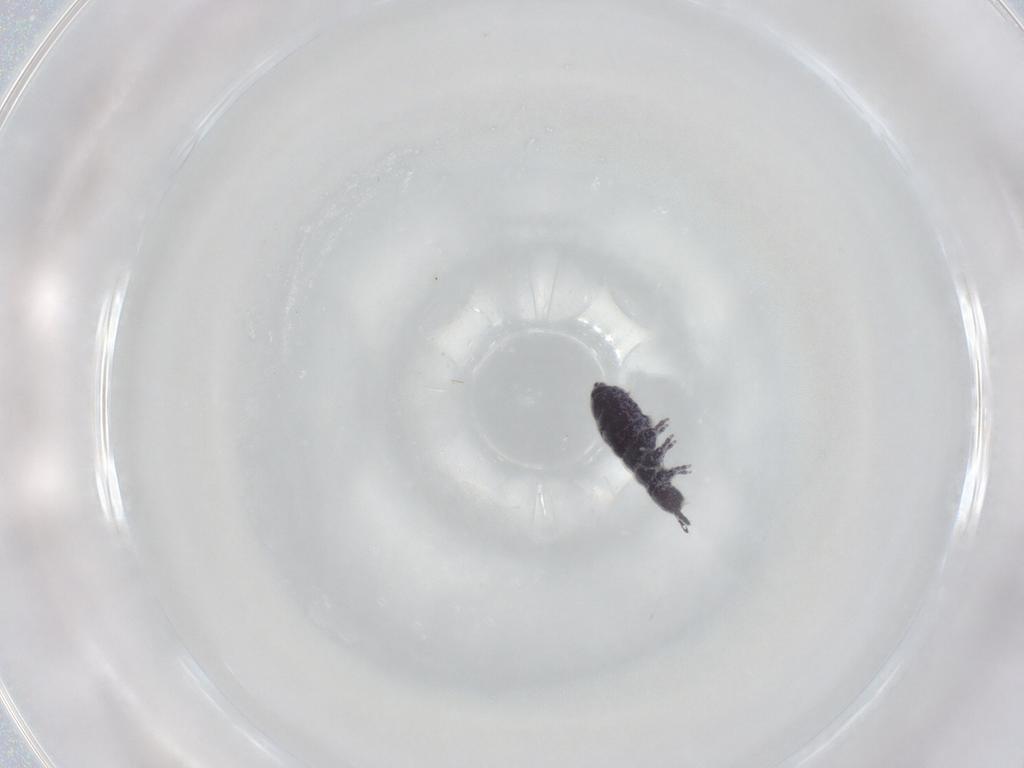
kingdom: Animalia
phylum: Arthropoda
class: Collembola
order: Poduromorpha
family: Brachystomellidae
